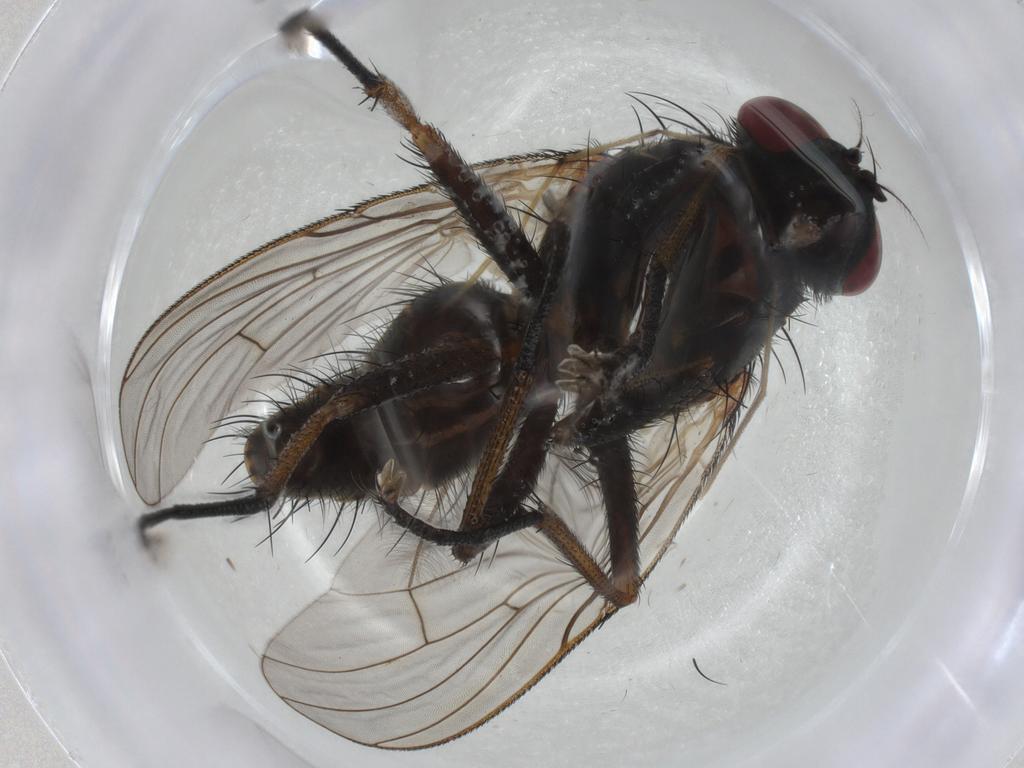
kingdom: Animalia
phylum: Arthropoda
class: Insecta
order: Diptera
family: Muscidae
